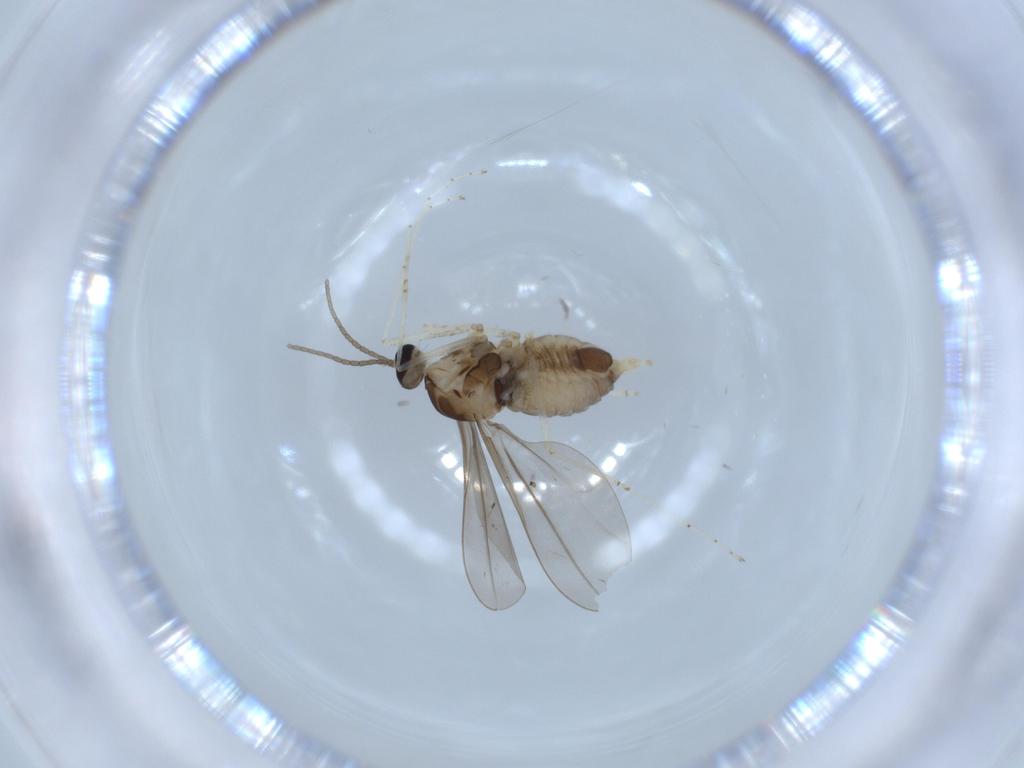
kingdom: Animalia
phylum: Arthropoda
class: Insecta
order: Diptera
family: Cecidomyiidae
